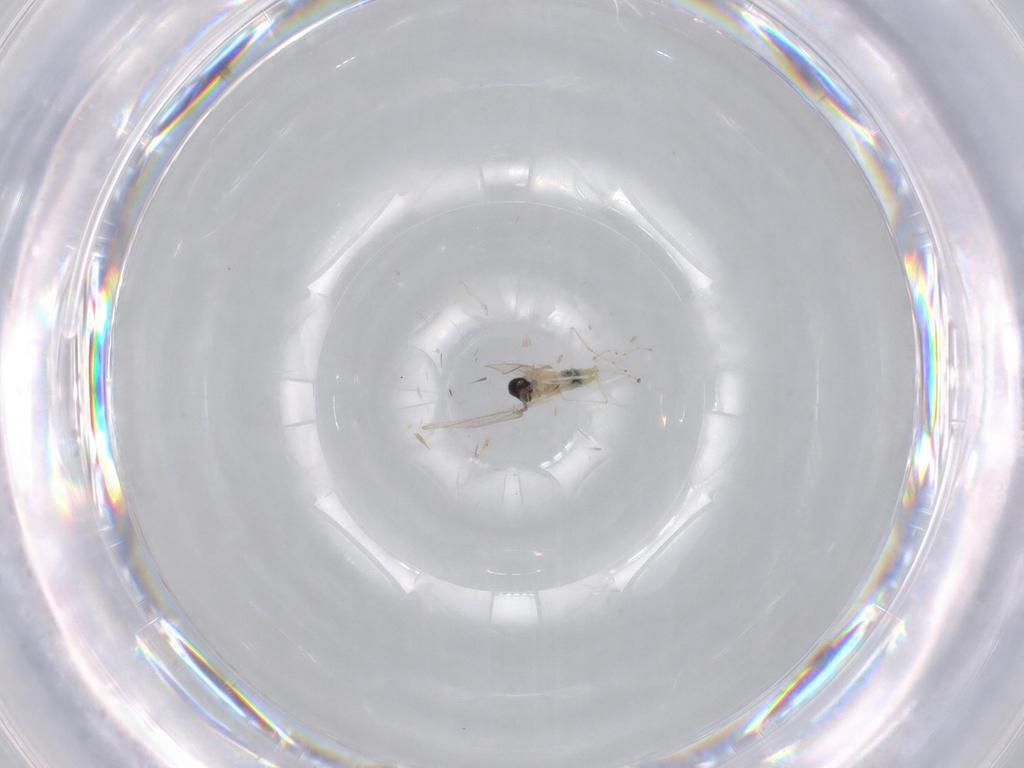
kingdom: Animalia
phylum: Arthropoda
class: Insecta
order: Diptera
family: Cecidomyiidae
